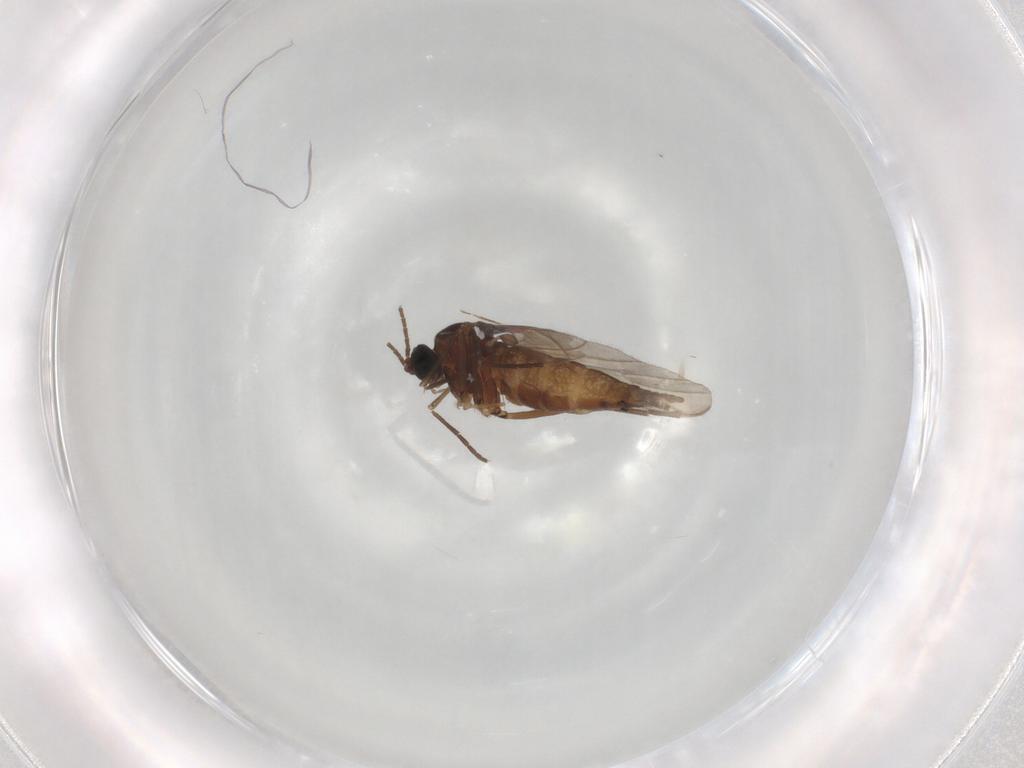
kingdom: Animalia
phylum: Arthropoda
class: Insecta
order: Diptera
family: Sciaridae
